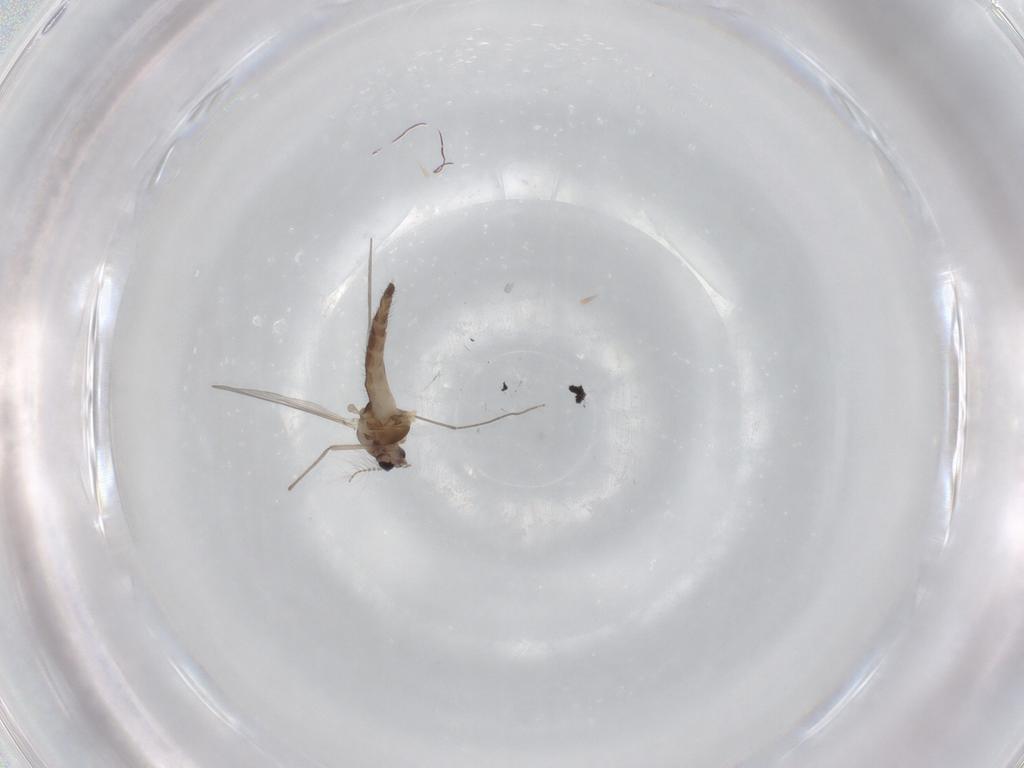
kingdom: Animalia
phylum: Arthropoda
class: Insecta
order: Diptera
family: Chironomidae
